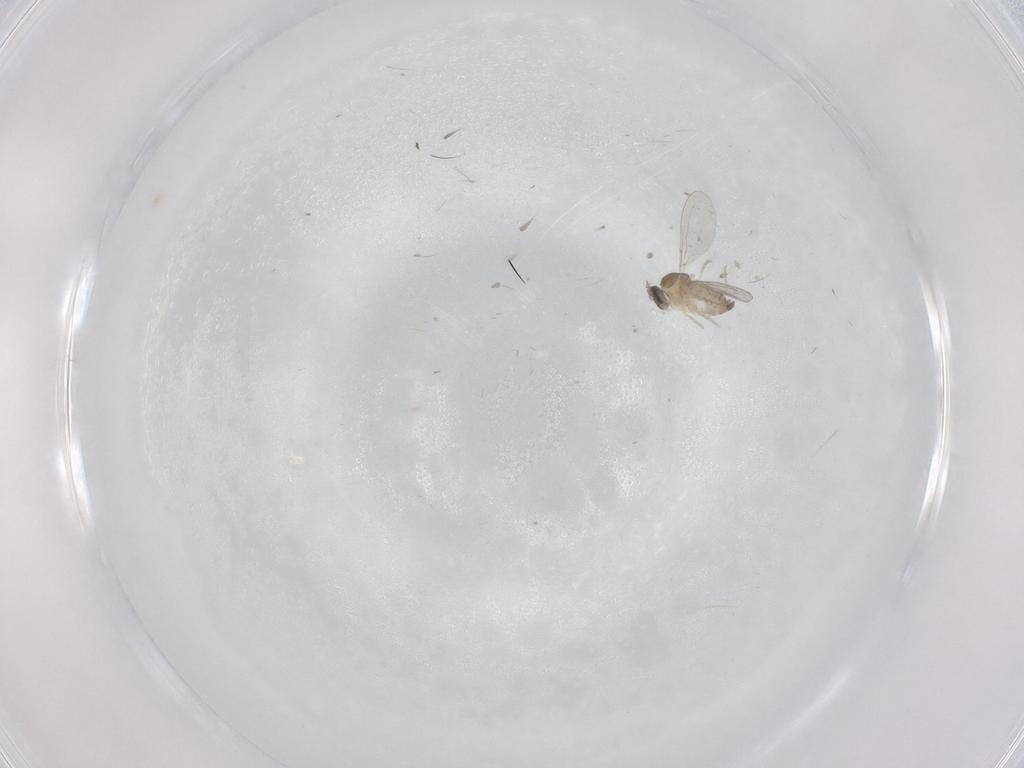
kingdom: Animalia
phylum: Arthropoda
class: Insecta
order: Diptera
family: Cecidomyiidae
